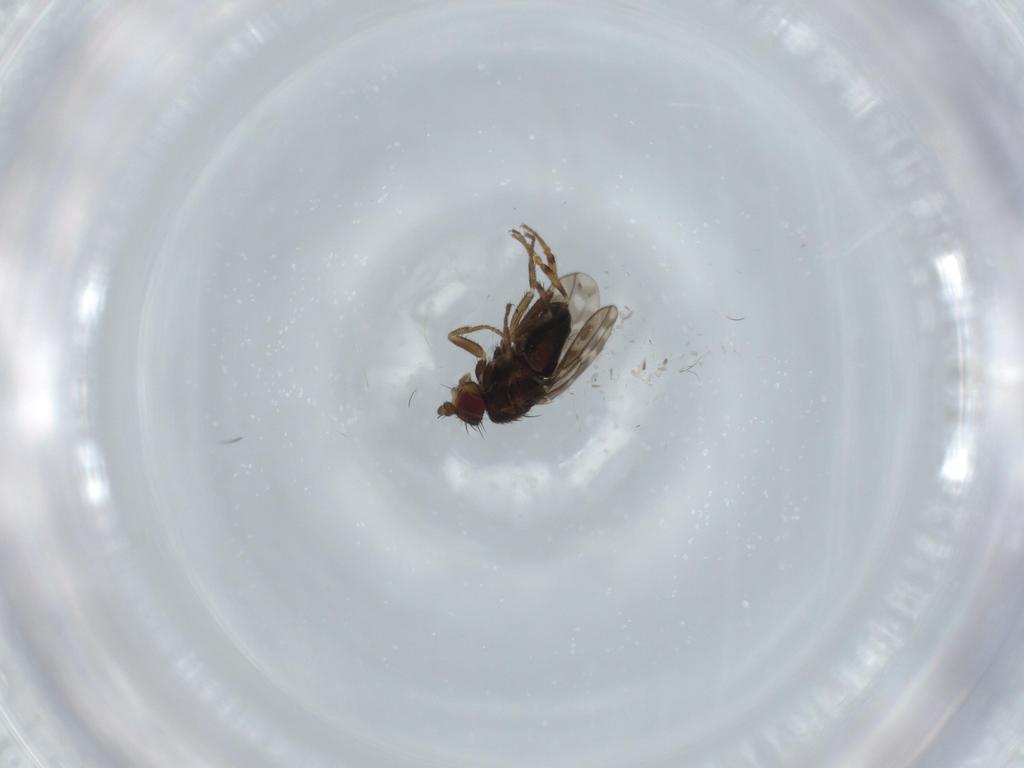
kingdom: Animalia
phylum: Arthropoda
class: Insecta
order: Diptera
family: Sphaeroceridae
